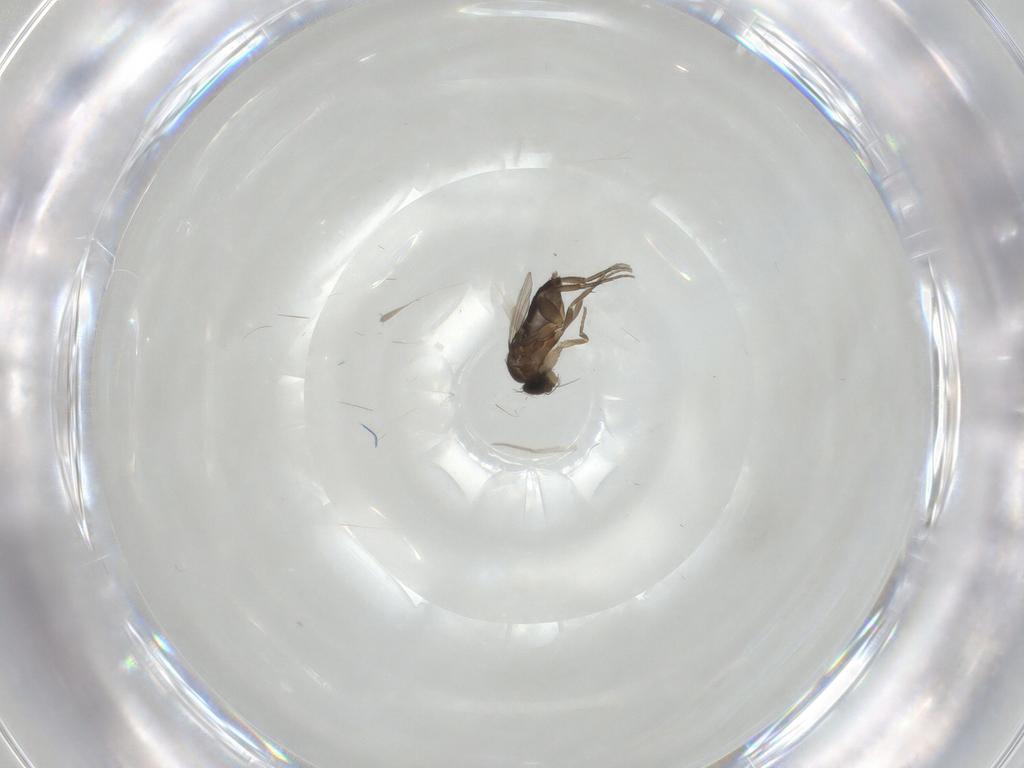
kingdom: Animalia
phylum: Arthropoda
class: Insecta
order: Diptera
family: Phoridae
